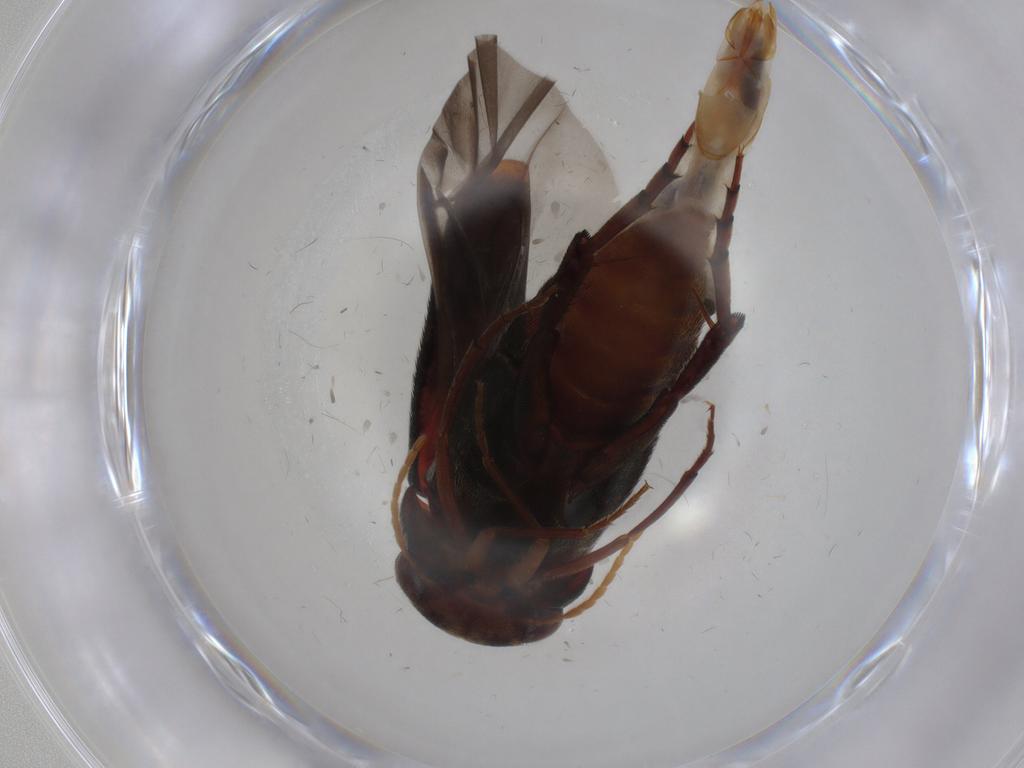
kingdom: Animalia
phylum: Arthropoda
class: Insecta
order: Coleoptera
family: Mordellidae
